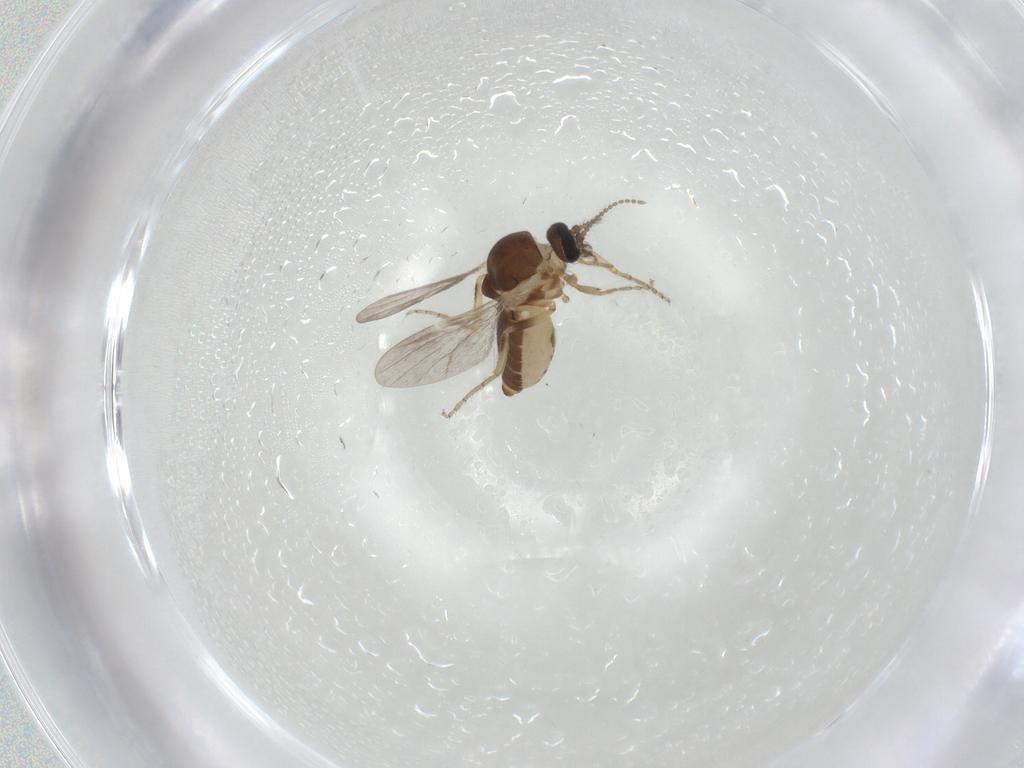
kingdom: Animalia
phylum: Arthropoda
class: Insecta
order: Diptera
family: Ceratopogonidae
